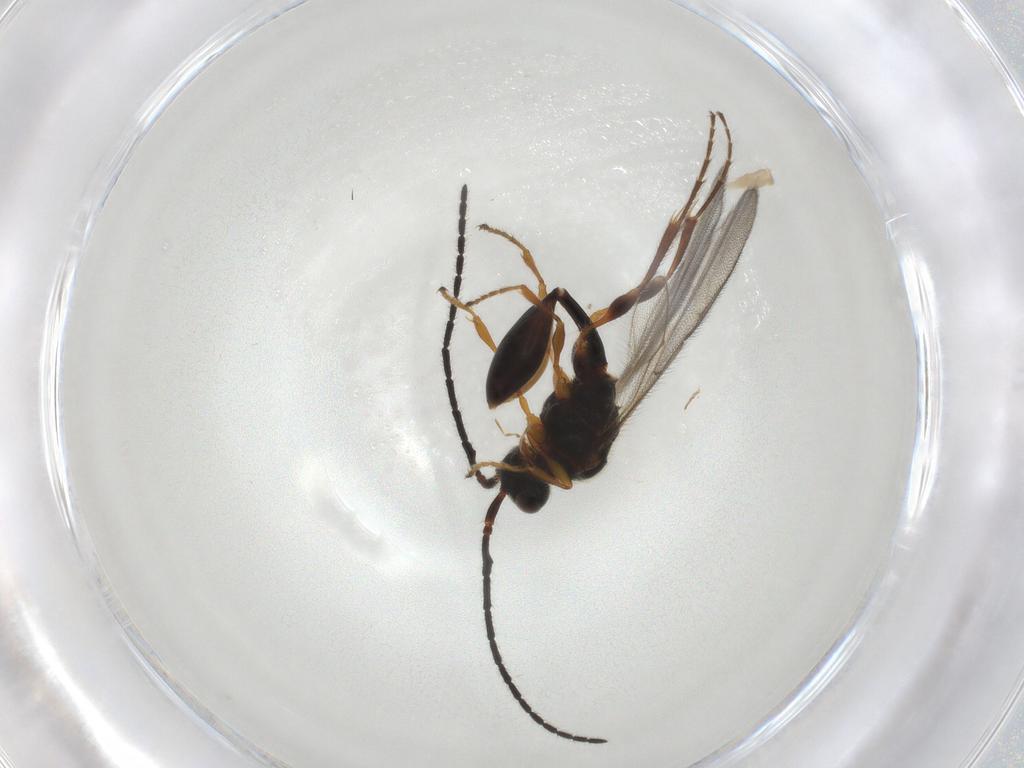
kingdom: Animalia
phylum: Arthropoda
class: Insecta
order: Hymenoptera
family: Diapriidae
